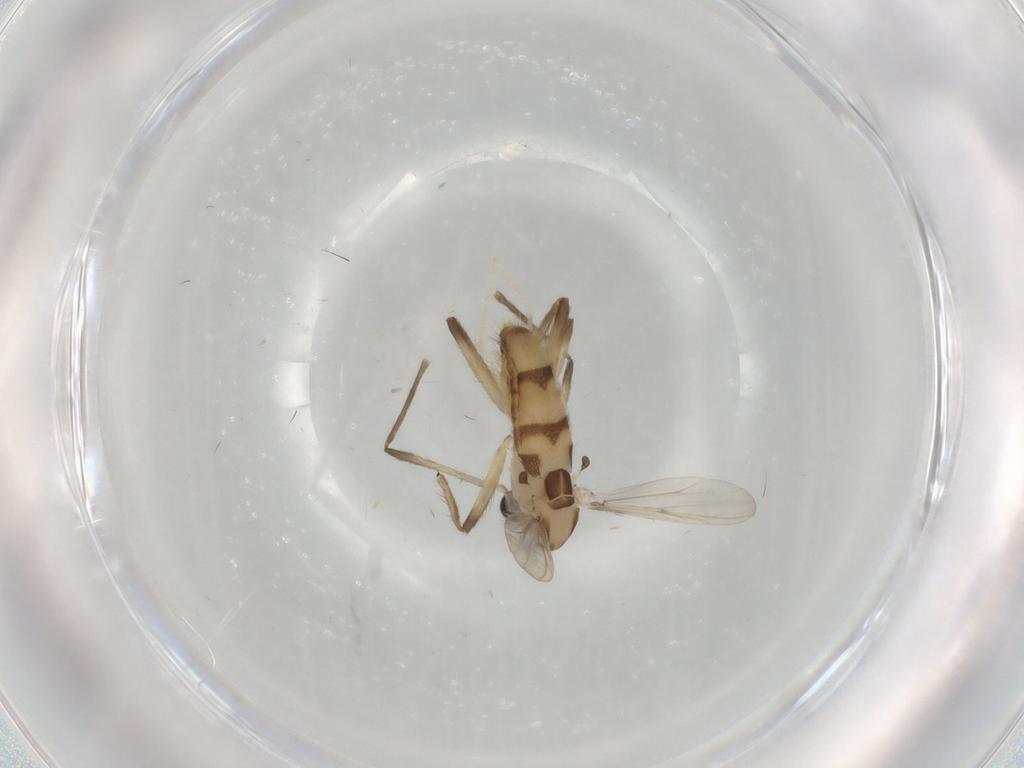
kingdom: Animalia
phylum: Arthropoda
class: Insecta
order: Diptera
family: Chironomidae
